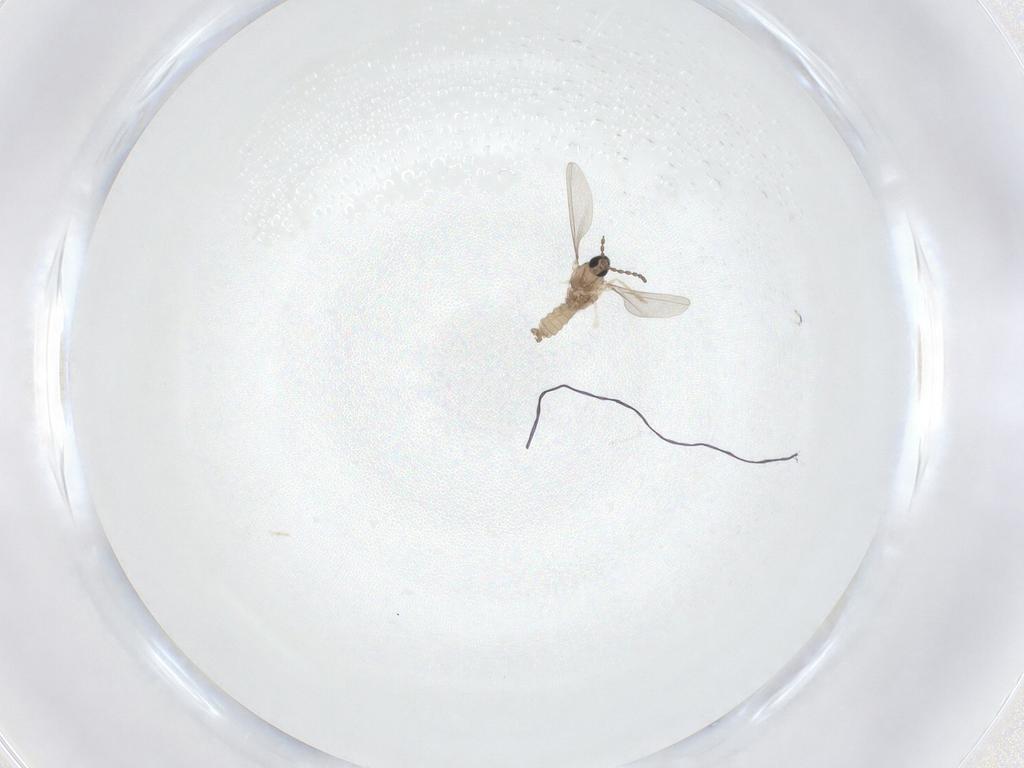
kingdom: Animalia
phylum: Arthropoda
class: Insecta
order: Diptera
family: Cecidomyiidae
